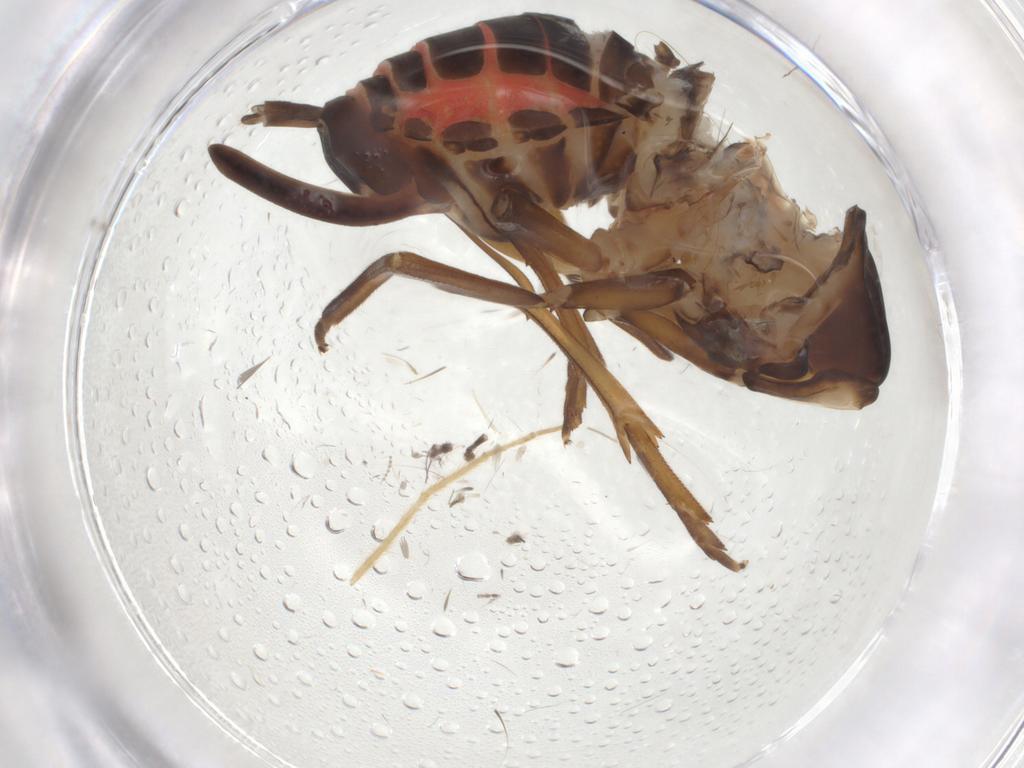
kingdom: Animalia
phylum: Arthropoda
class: Insecta
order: Hemiptera
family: Cixiidae
